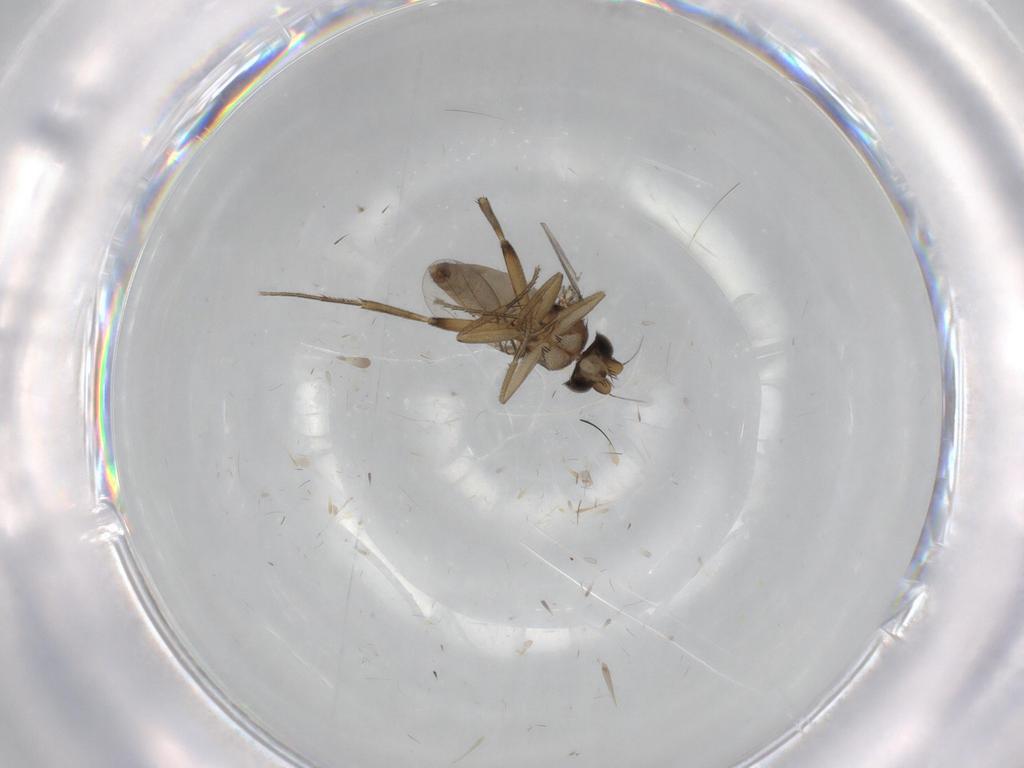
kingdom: Animalia
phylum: Arthropoda
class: Insecta
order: Diptera
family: Phoridae
